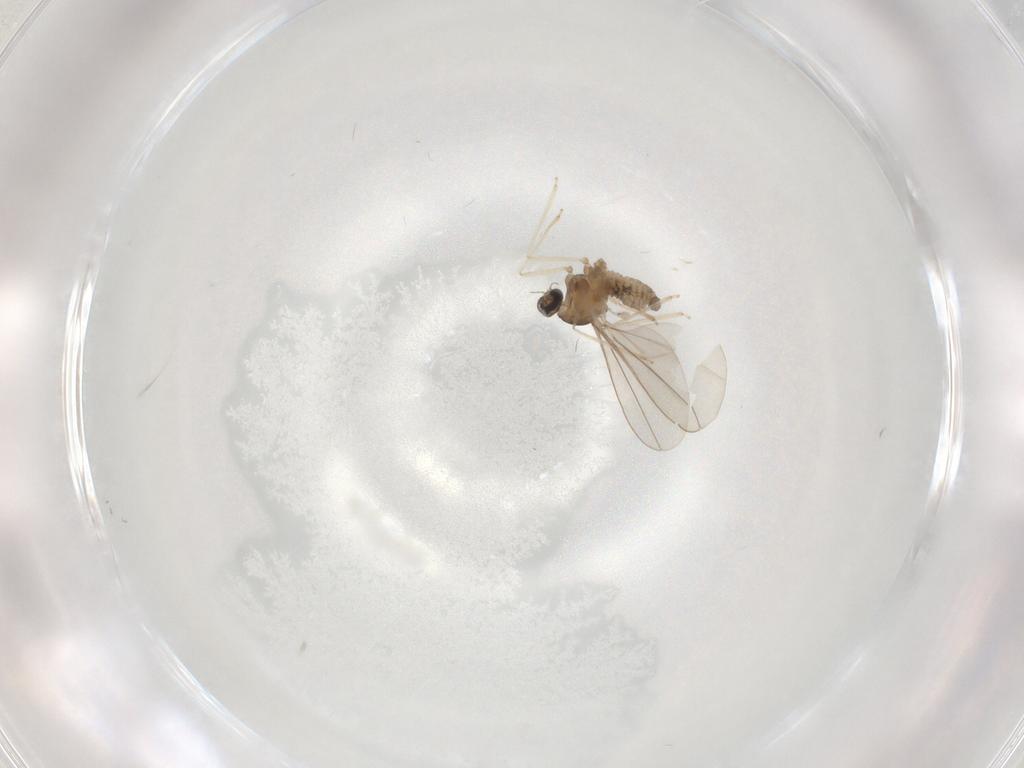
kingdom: Animalia
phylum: Arthropoda
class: Insecta
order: Diptera
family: Cecidomyiidae
